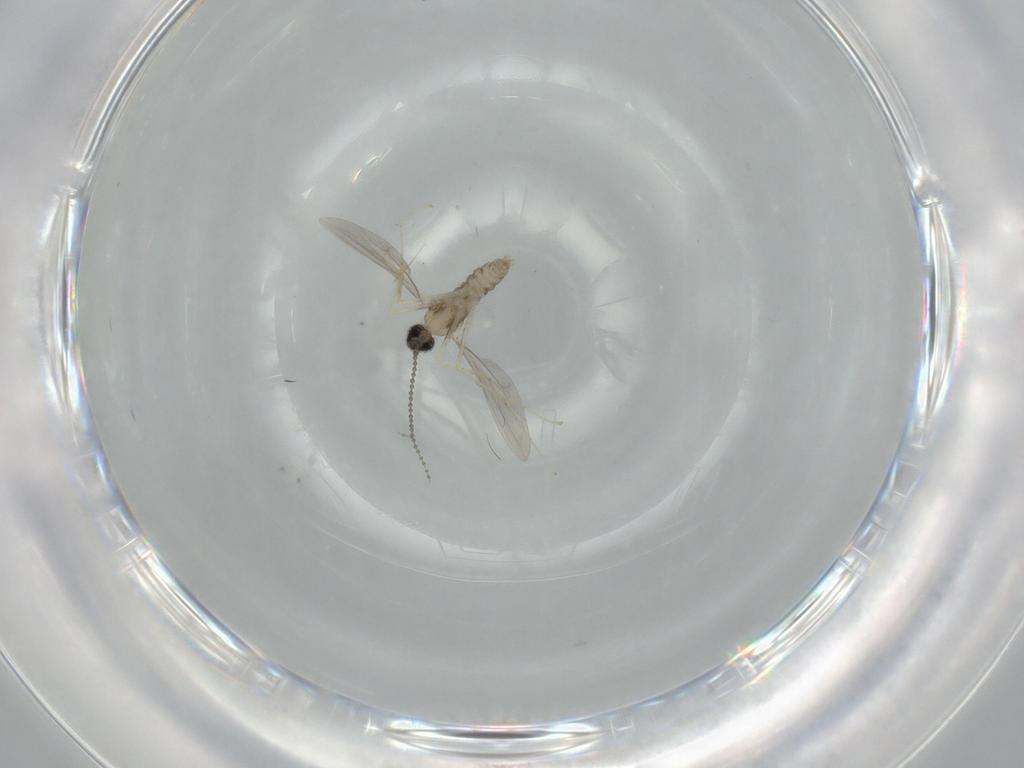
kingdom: Animalia
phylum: Arthropoda
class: Insecta
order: Diptera
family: Cecidomyiidae
